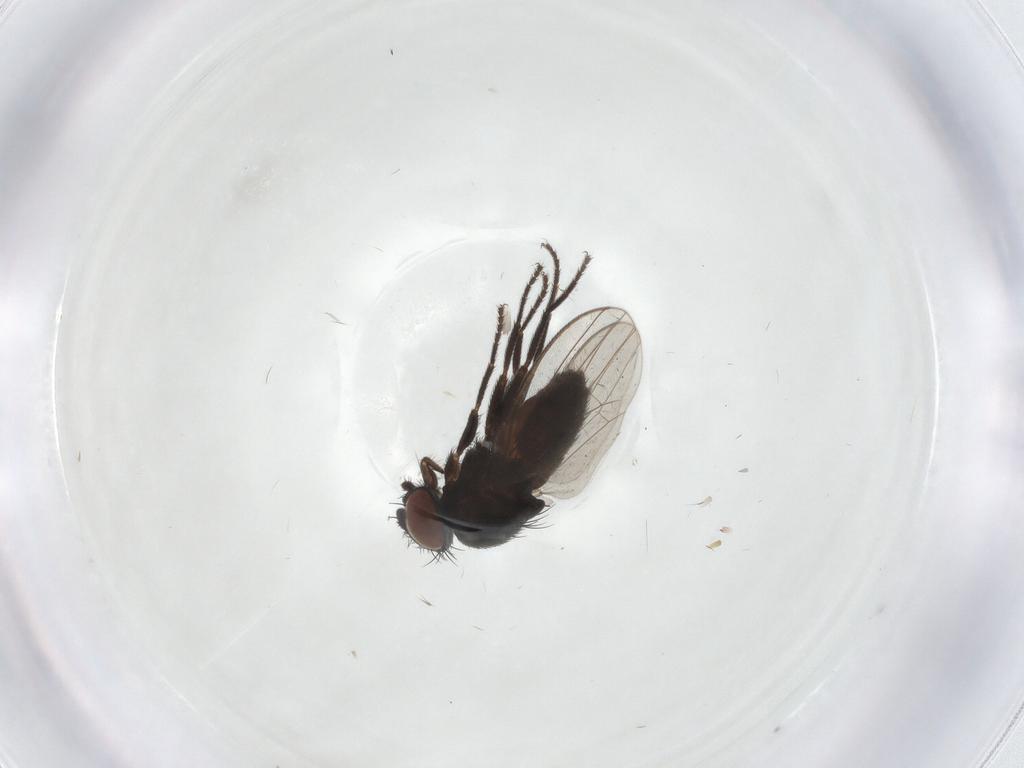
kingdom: Animalia
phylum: Arthropoda
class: Insecta
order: Diptera
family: Milichiidae
